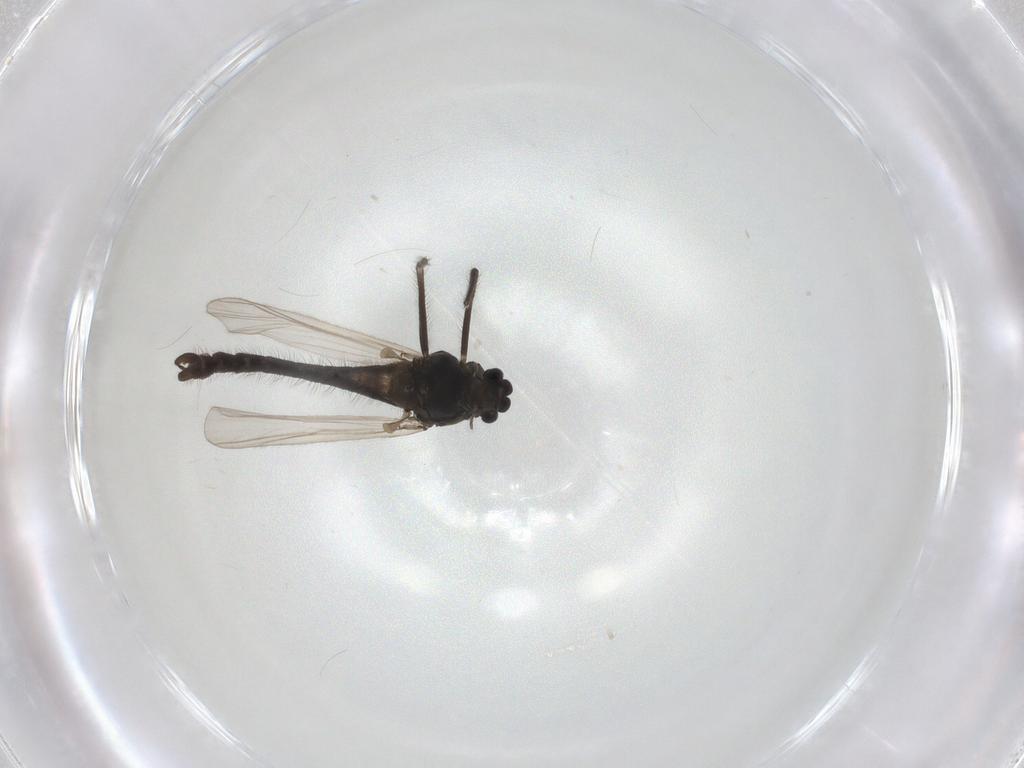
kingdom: Animalia
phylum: Arthropoda
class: Insecta
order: Diptera
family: Chironomidae
